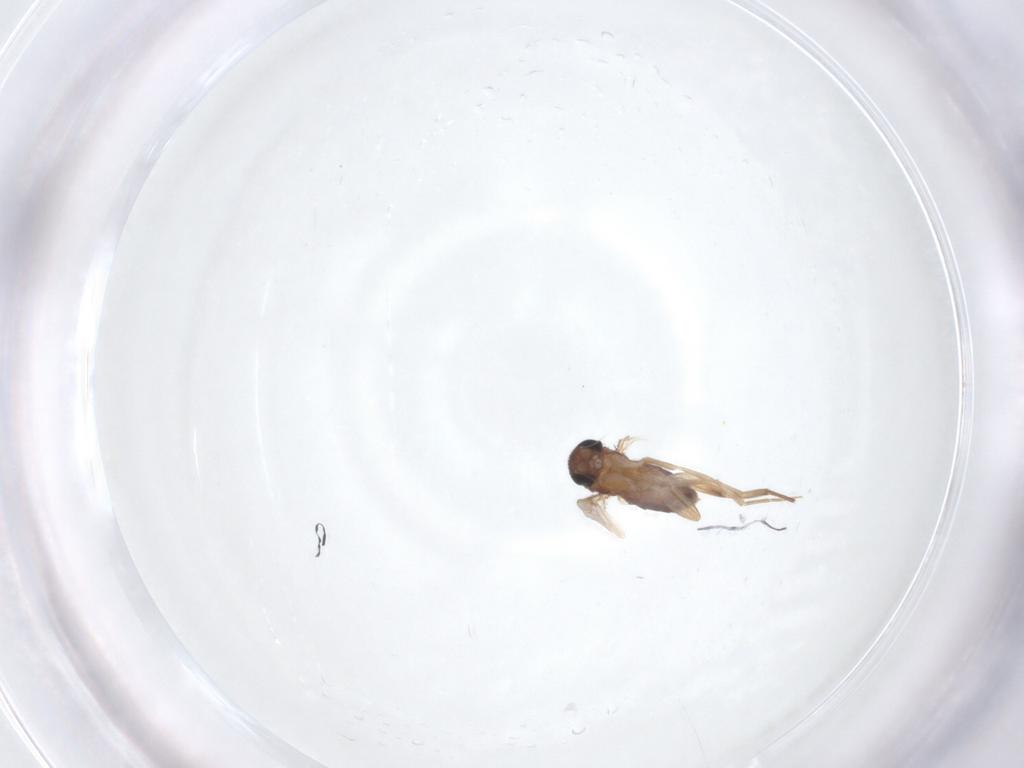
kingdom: Animalia
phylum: Arthropoda
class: Insecta
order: Diptera
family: Phoridae
